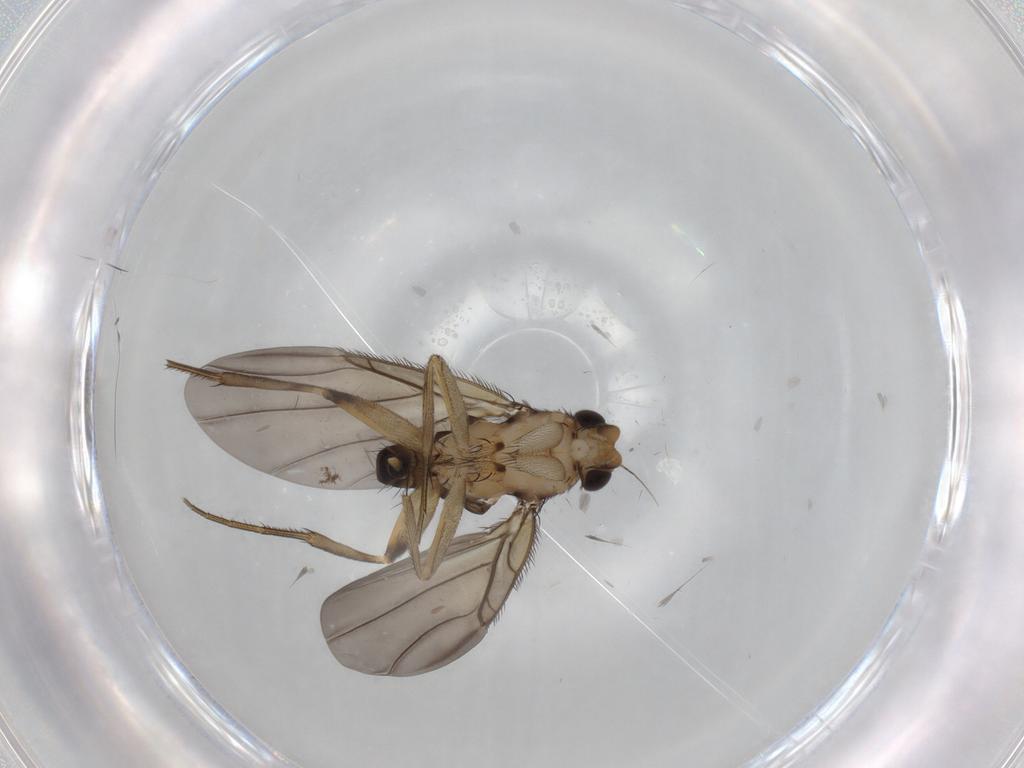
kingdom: Animalia
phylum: Arthropoda
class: Insecta
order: Diptera
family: Phoridae
